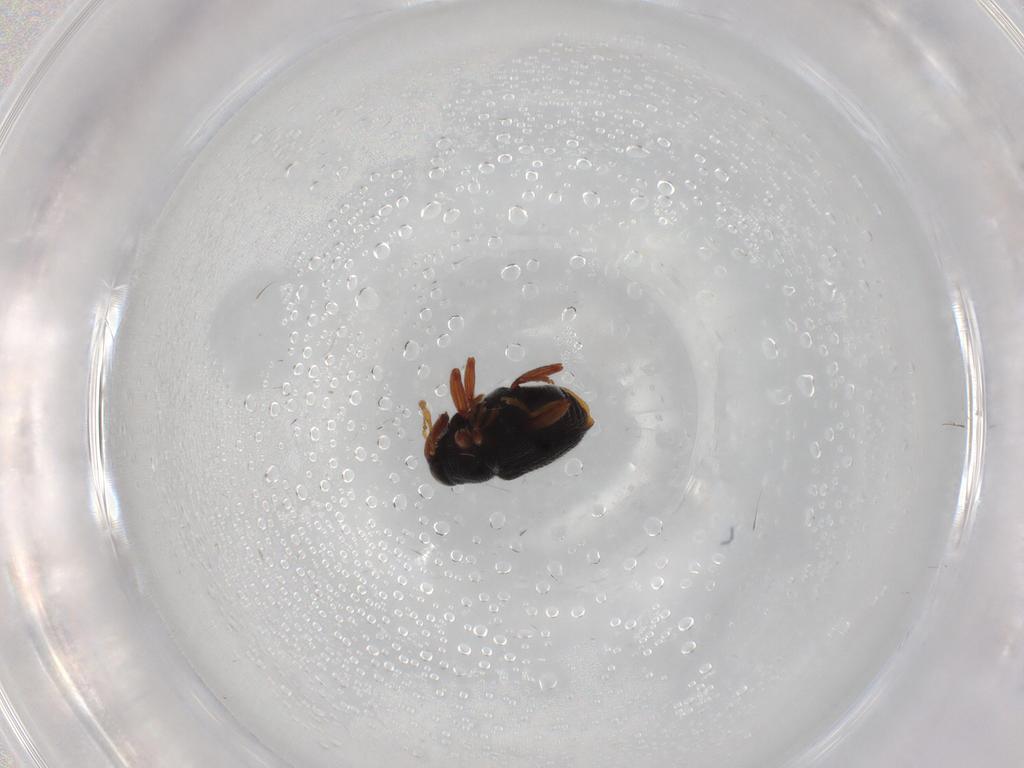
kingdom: Animalia
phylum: Arthropoda
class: Insecta
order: Coleoptera
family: Curculionidae
